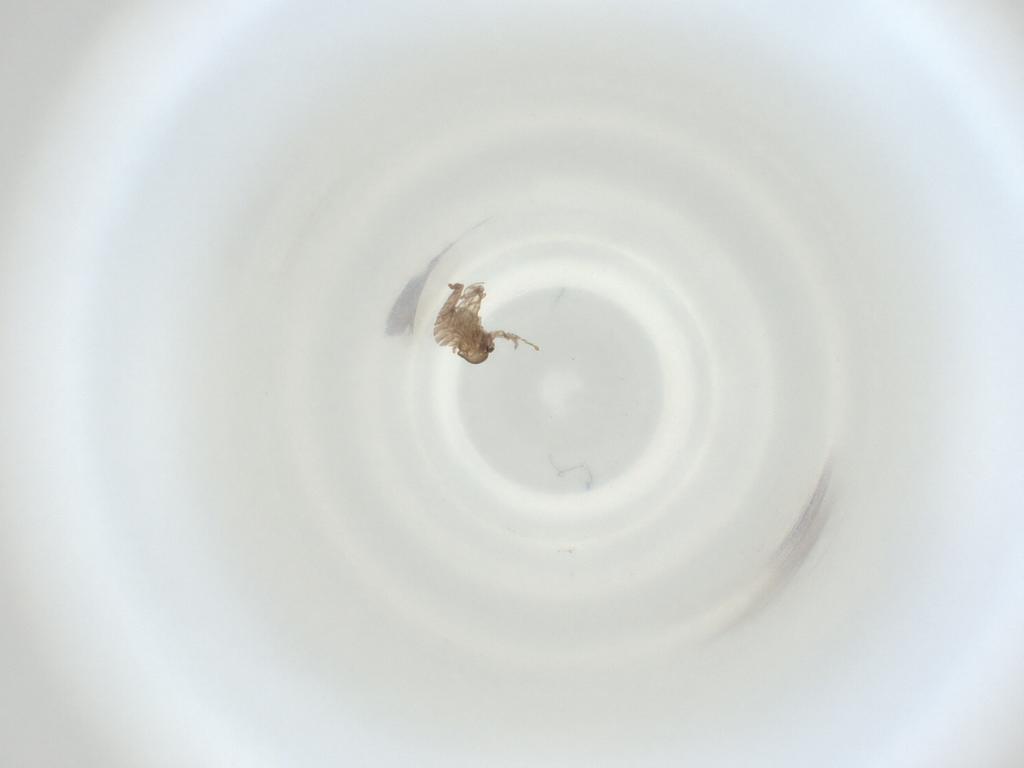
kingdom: Animalia
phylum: Arthropoda
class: Insecta
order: Diptera
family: Cecidomyiidae
